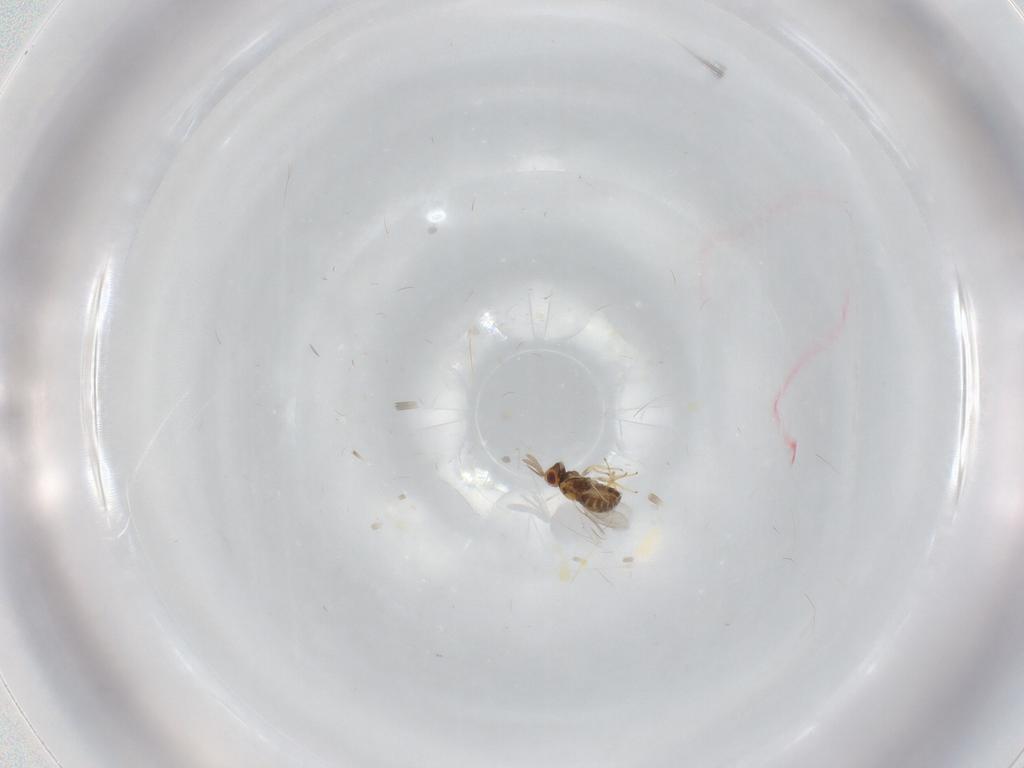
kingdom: Animalia
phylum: Arthropoda
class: Insecta
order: Hymenoptera
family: Aphelinidae
